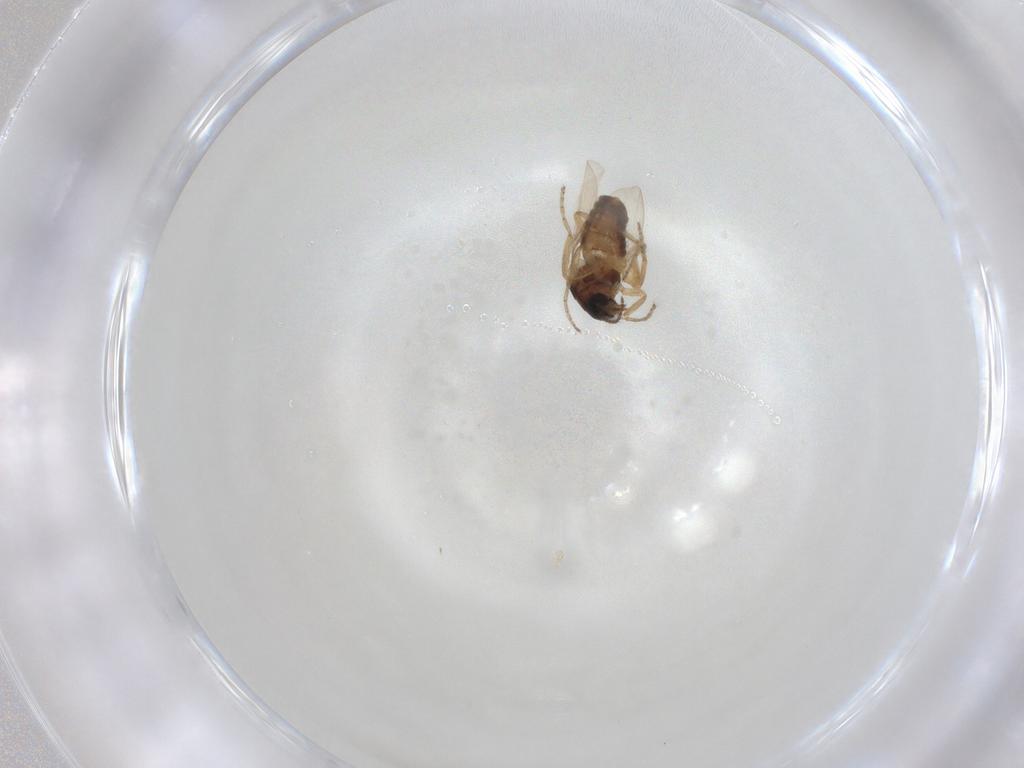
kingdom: Animalia
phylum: Arthropoda
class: Insecta
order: Diptera
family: Ceratopogonidae
